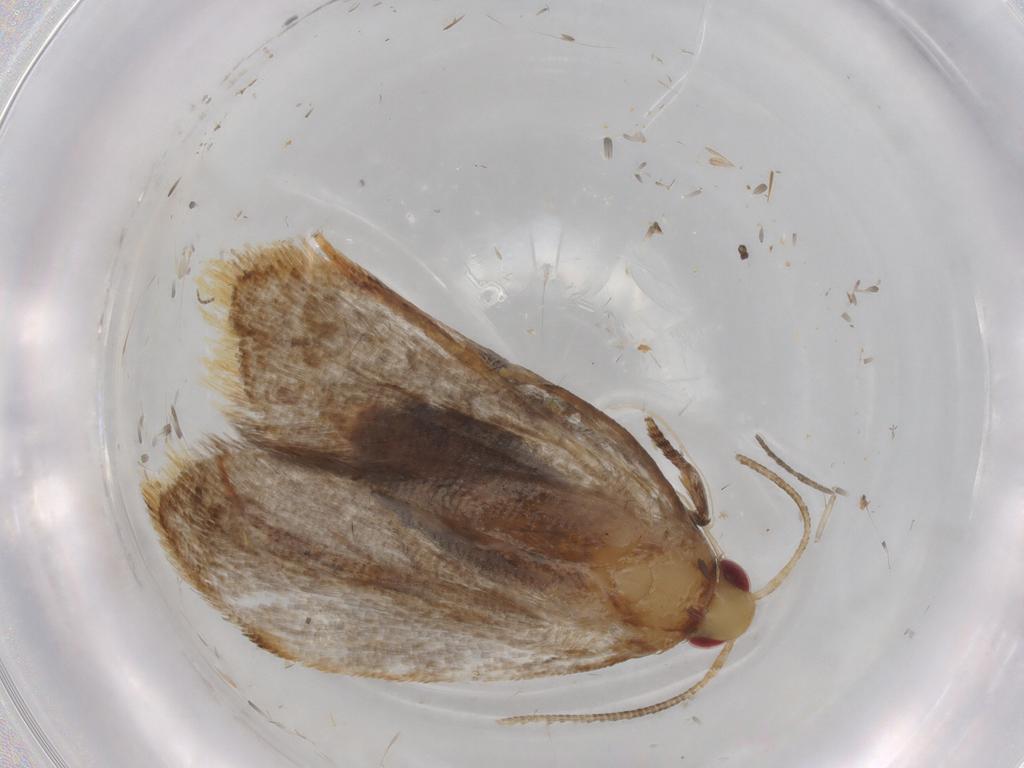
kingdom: Animalia
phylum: Arthropoda
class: Insecta
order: Lepidoptera
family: Oecophoridae
